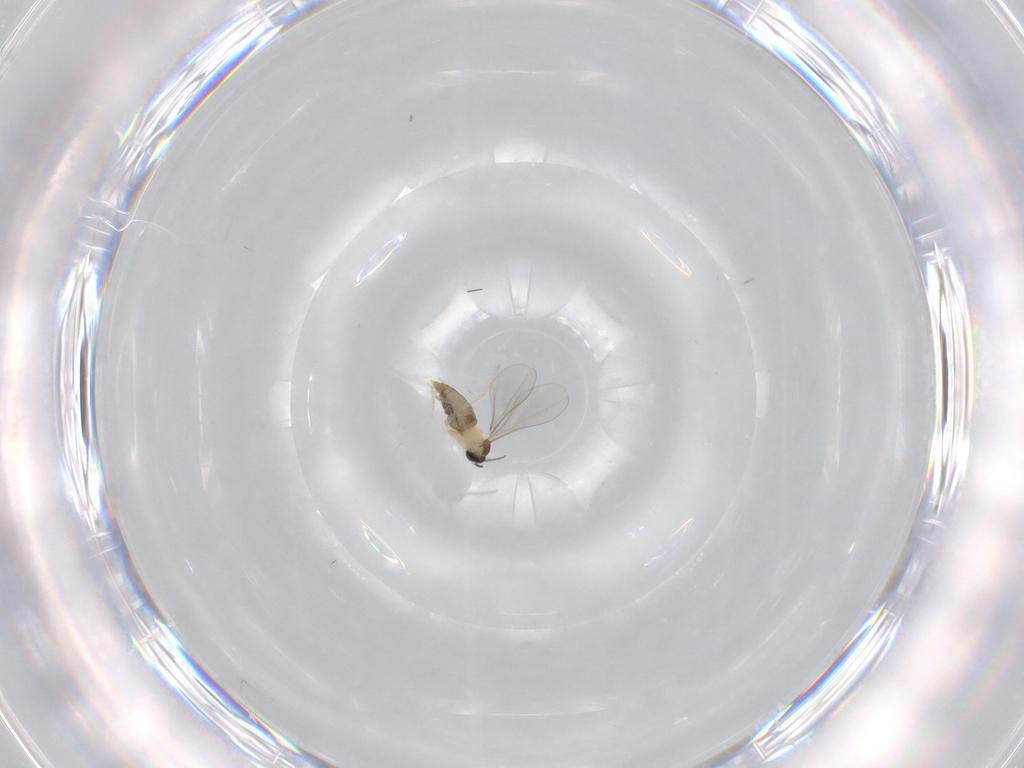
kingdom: Animalia
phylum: Arthropoda
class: Insecta
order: Diptera
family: Cecidomyiidae
